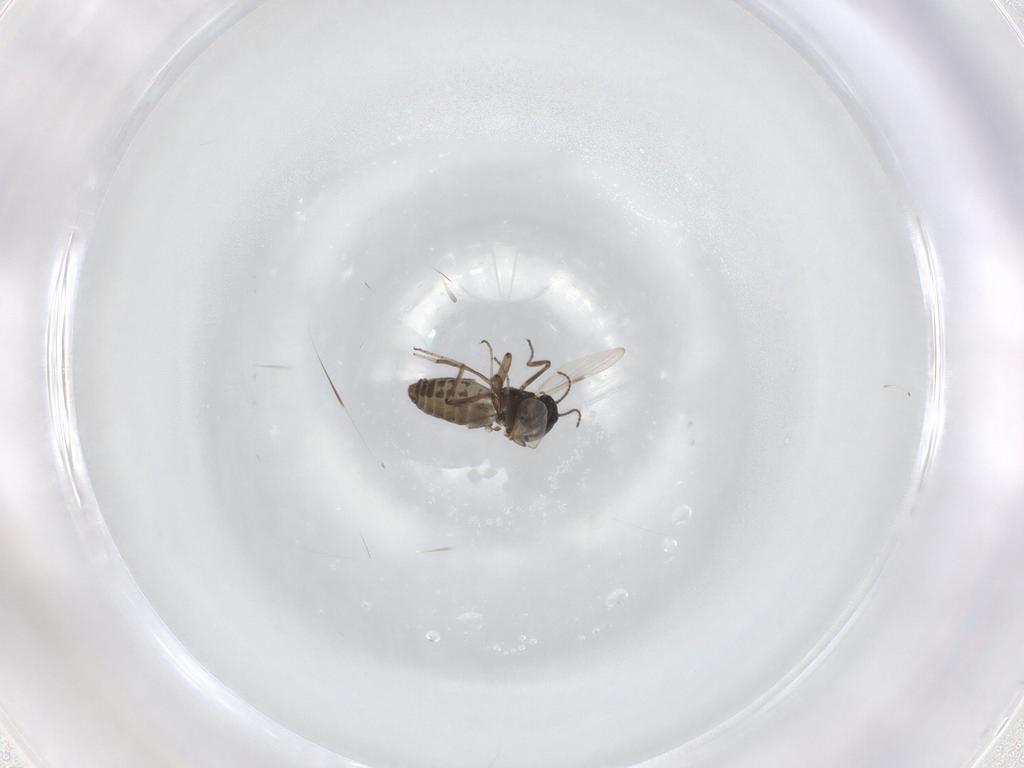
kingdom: Animalia
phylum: Arthropoda
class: Insecta
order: Diptera
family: Ceratopogonidae
